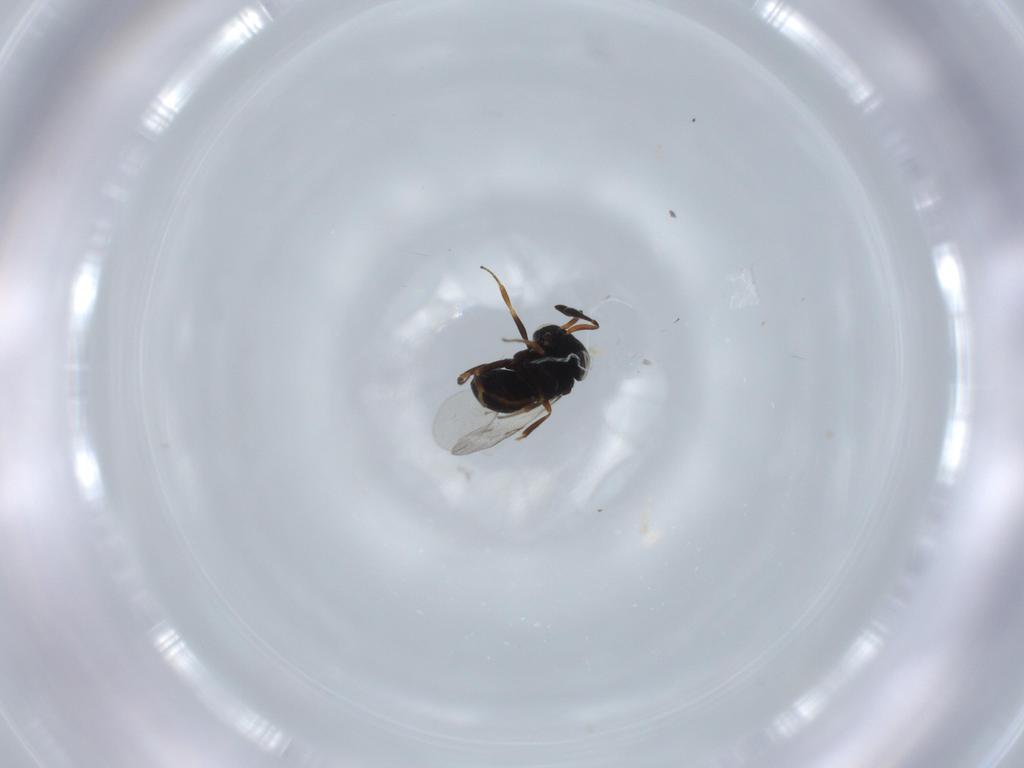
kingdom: Animalia
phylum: Arthropoda
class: Insecta
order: Hymenoptera
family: Scelionidae
